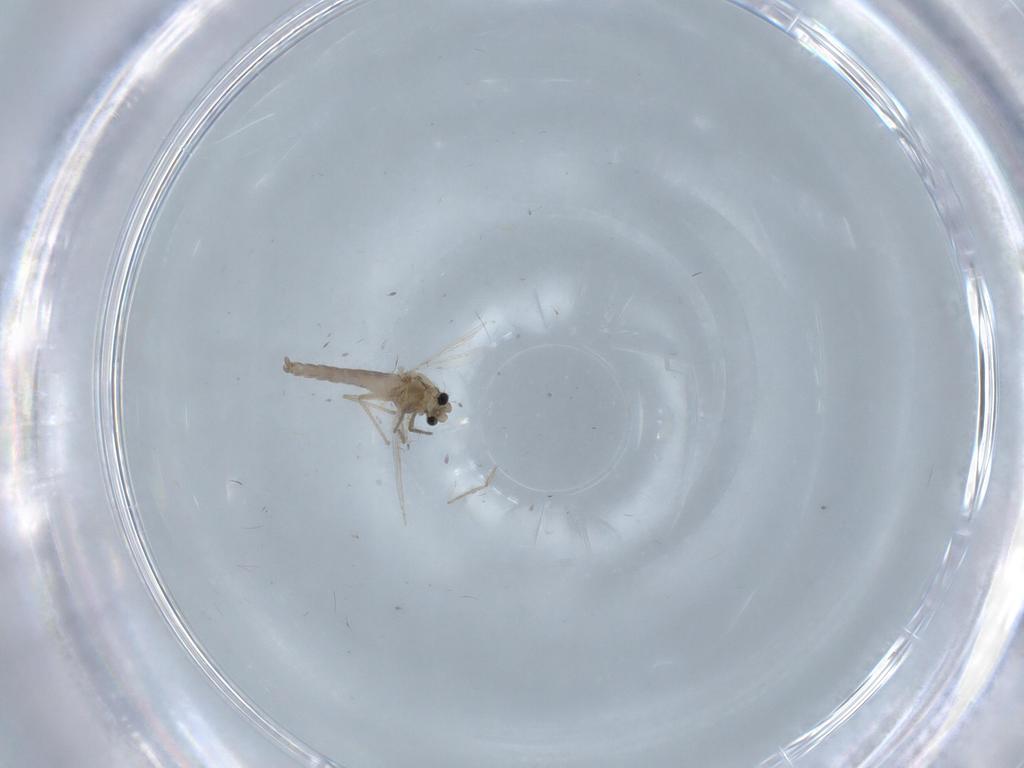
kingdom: Animalia
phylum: Arthropoda
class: Insecta
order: Diptera
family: Chironomidae
